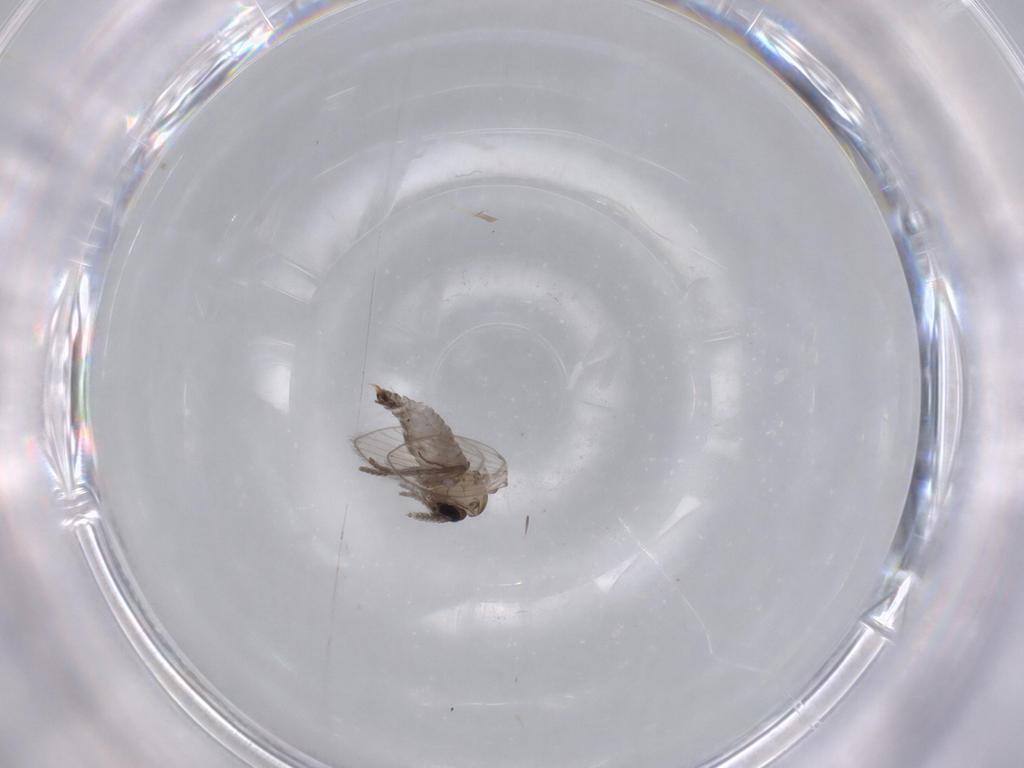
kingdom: Animalia
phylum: Arthropoda
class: Insecta
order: Diptera
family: Psychodidae
